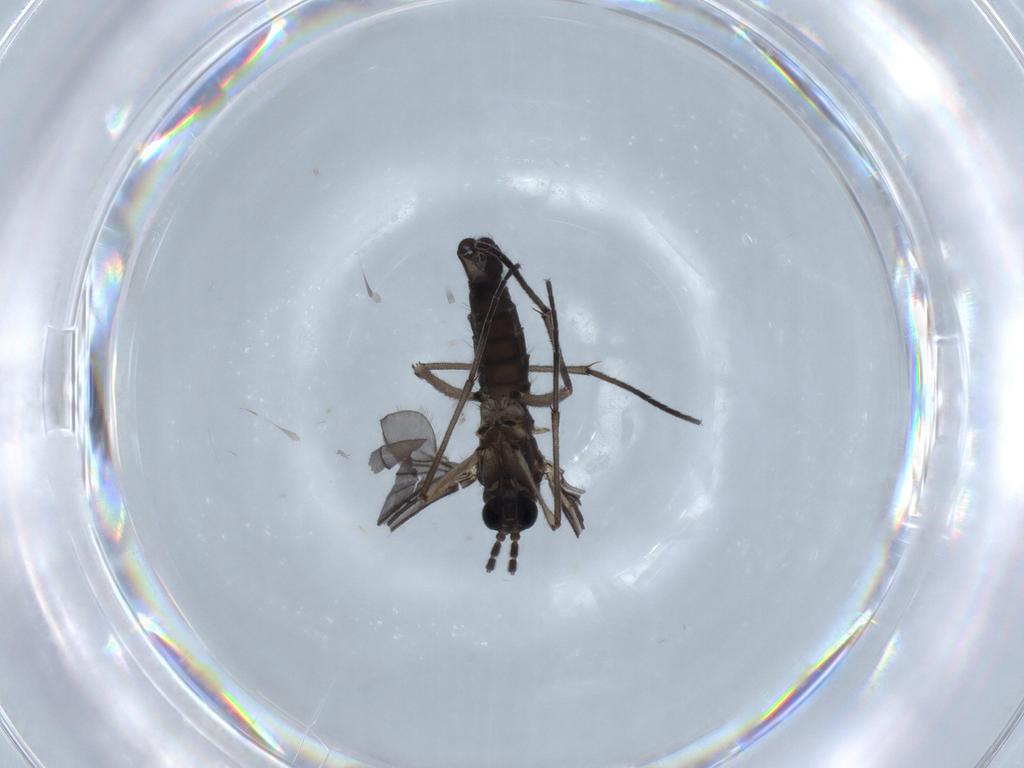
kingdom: Animalia
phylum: Arthropoda
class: Insecta
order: Diptera
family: Sciaridae
